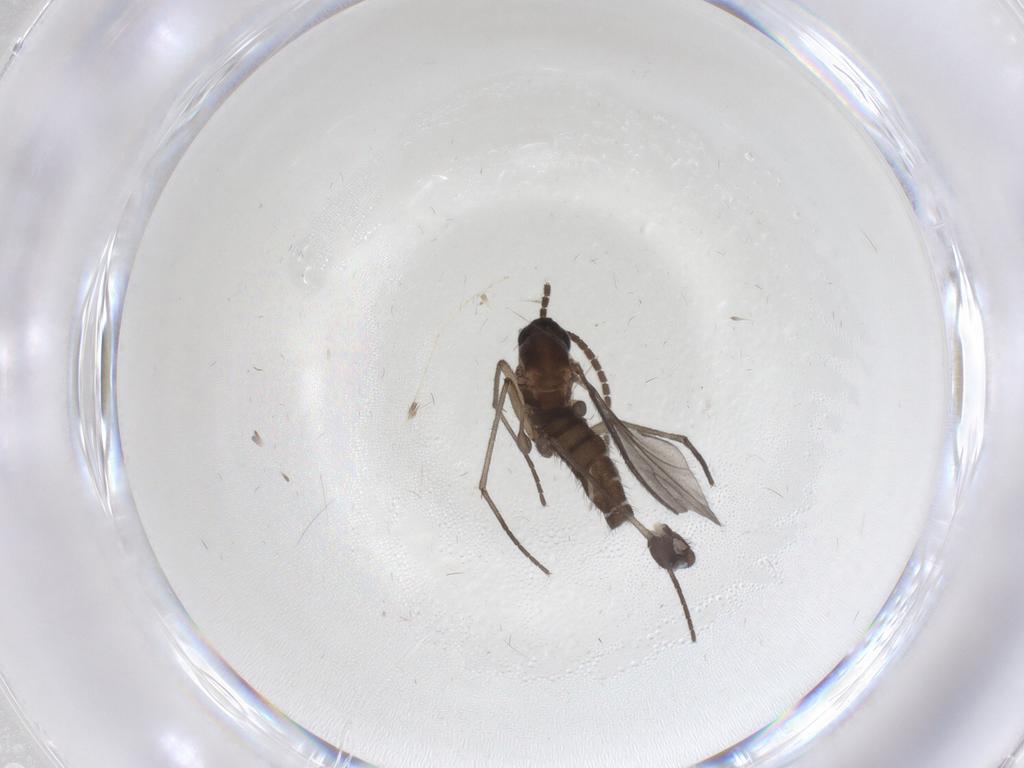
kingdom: Animalia
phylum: Arthropoda
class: Insecta
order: Diptera
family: Sciaridae
